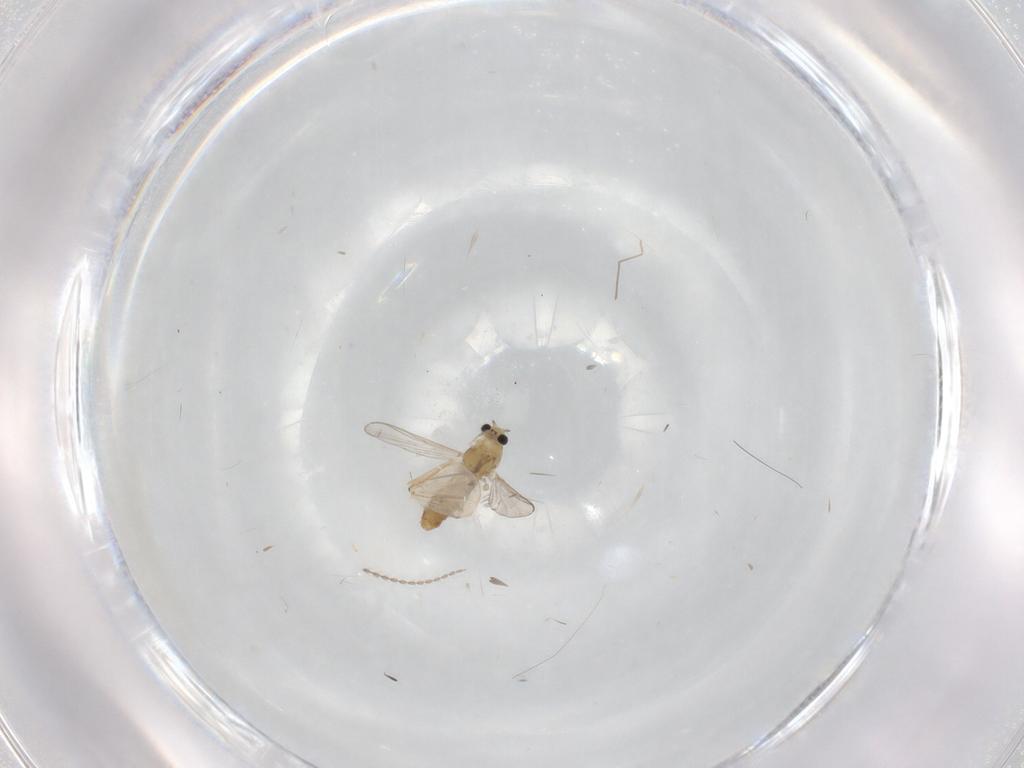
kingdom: Animalia
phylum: Arthropoda
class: Insecta
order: Diptera
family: Chironomidae
